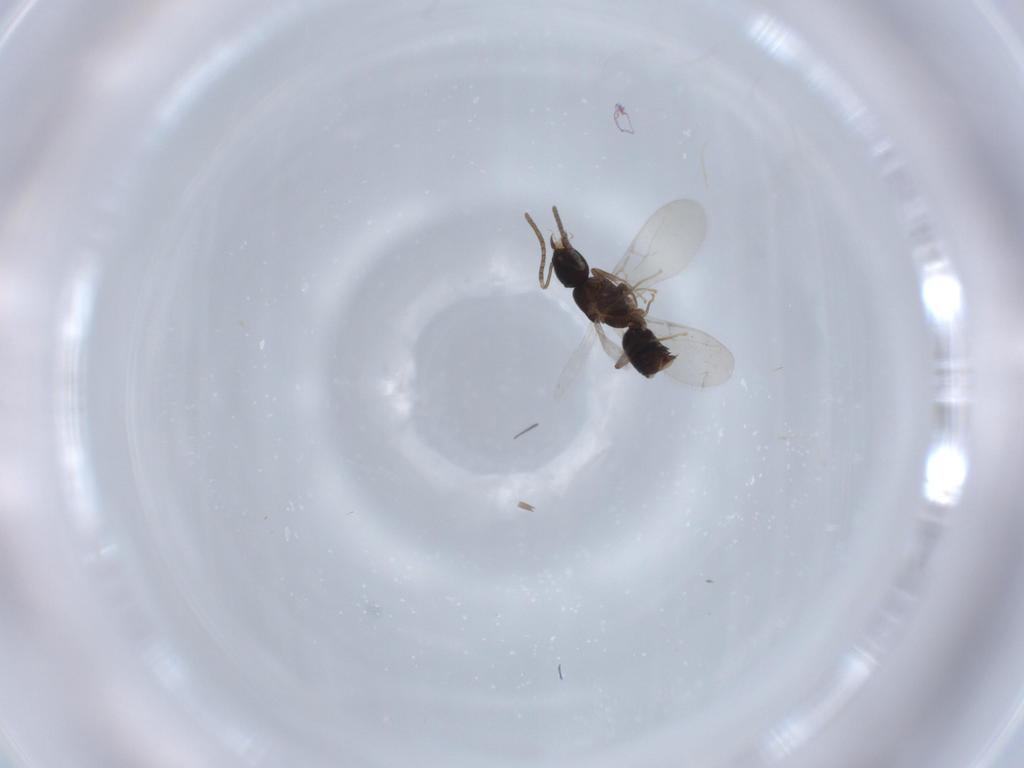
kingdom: Animalia
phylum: Arthropoda
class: Insecta
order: Hymenoptera
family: Formicidae
